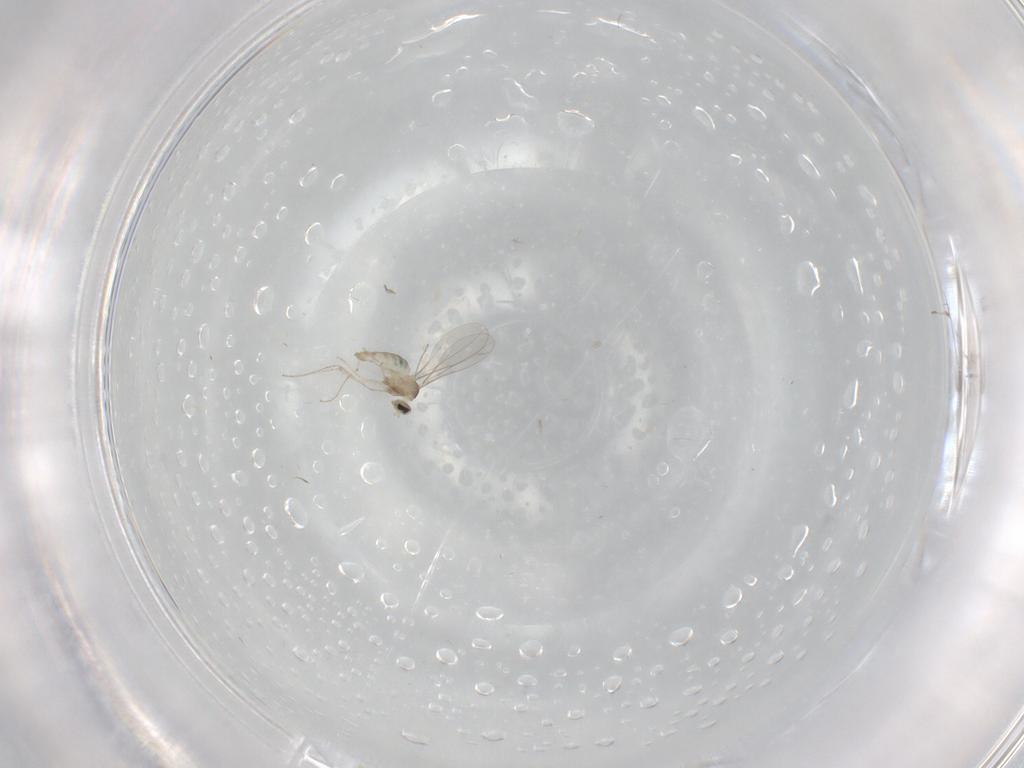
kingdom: Animalia
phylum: Arthropoda
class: Insecta
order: Diptera
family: Cecidomyiidae
